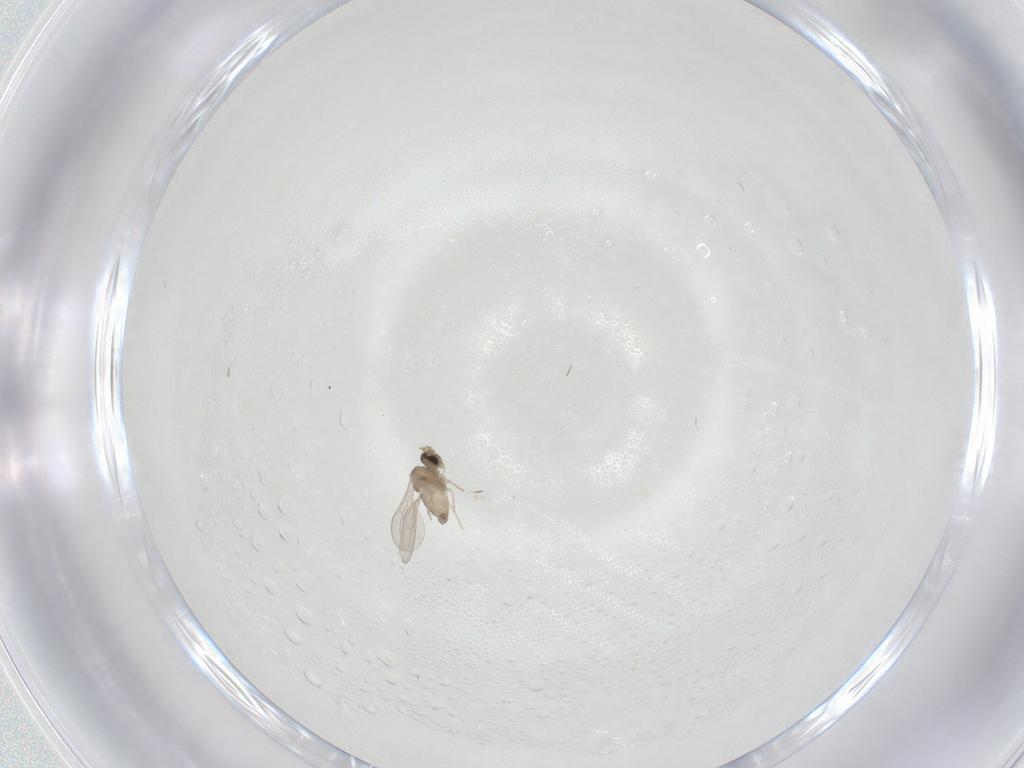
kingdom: Animalia
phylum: Arthropoda
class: Insecta
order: Diptera
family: Cecidomyiidae
